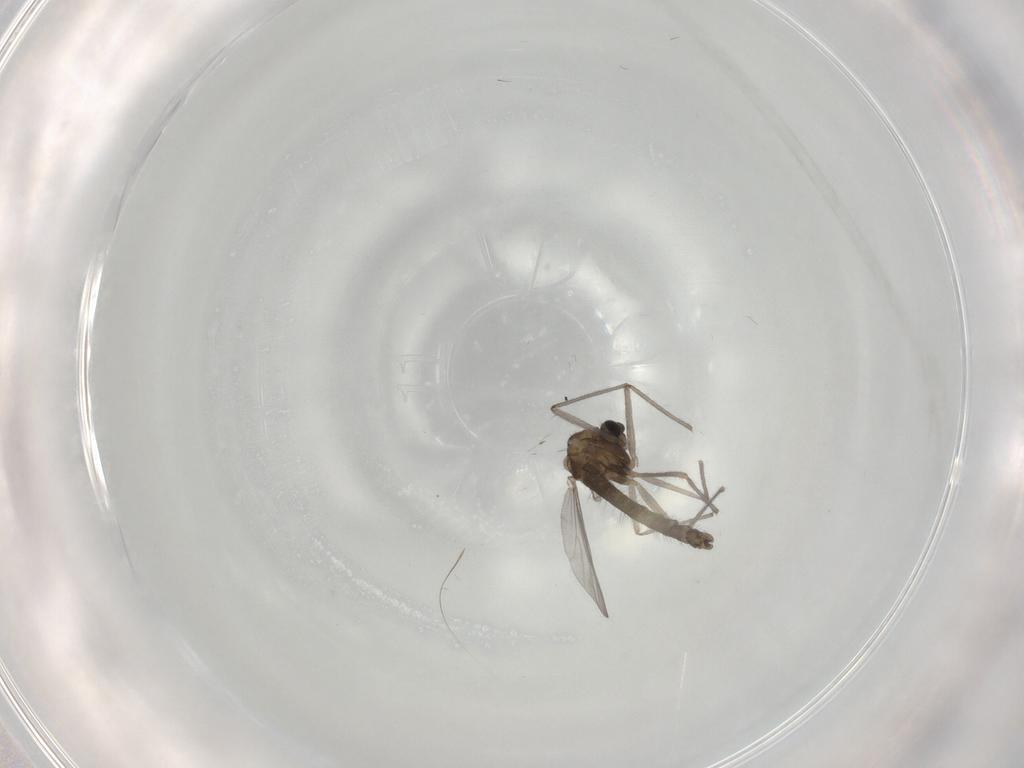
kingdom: Animalia
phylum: Arthropoda
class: Insecta
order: Diptera
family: Chironomidae
